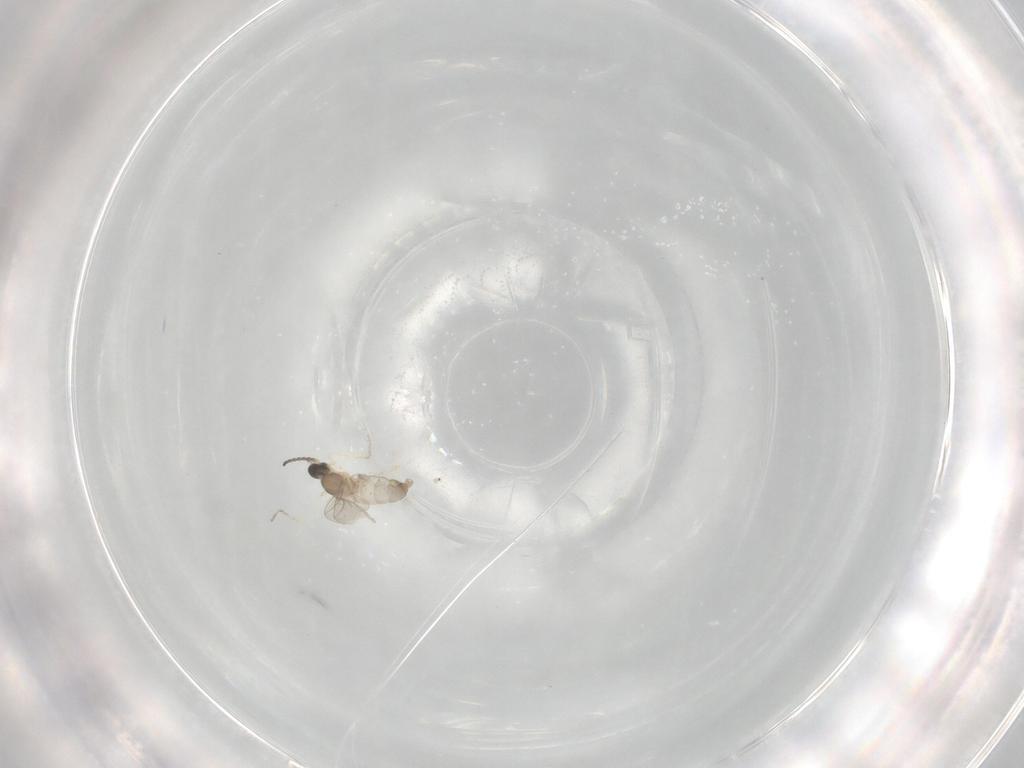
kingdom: Animalia
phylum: Arthropoda
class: Insecta
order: Diptera
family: Cecidomyiidae
